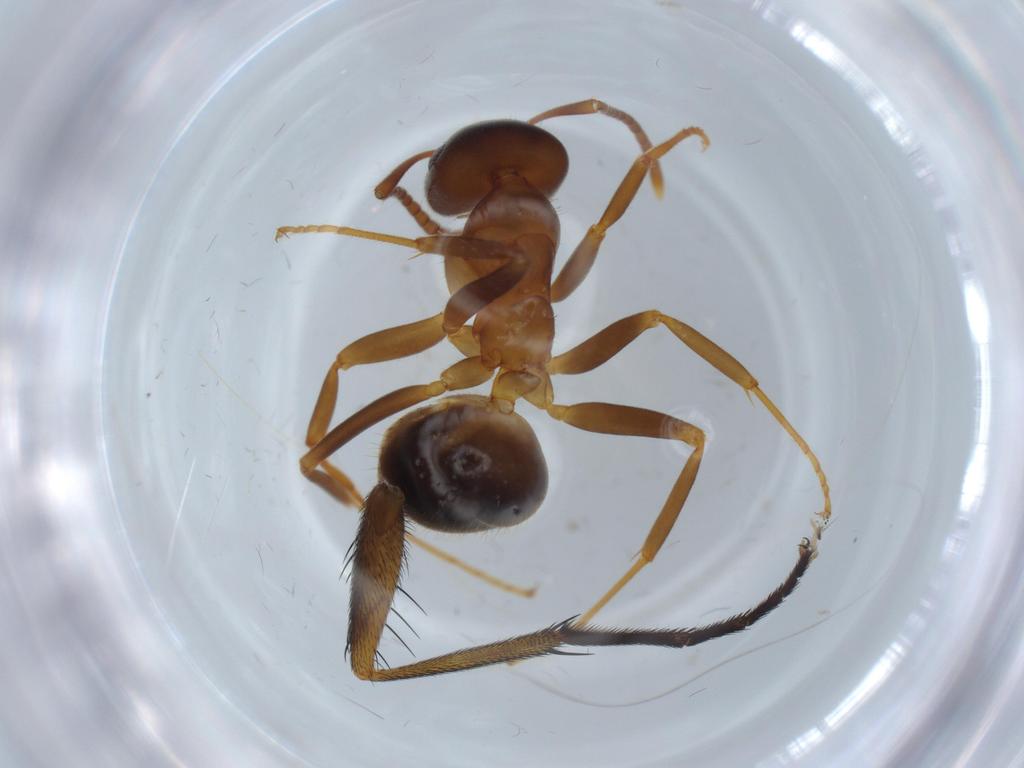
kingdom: Animalia
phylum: Arthropoda
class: Insecta
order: Hymenoptera
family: Formicidae
